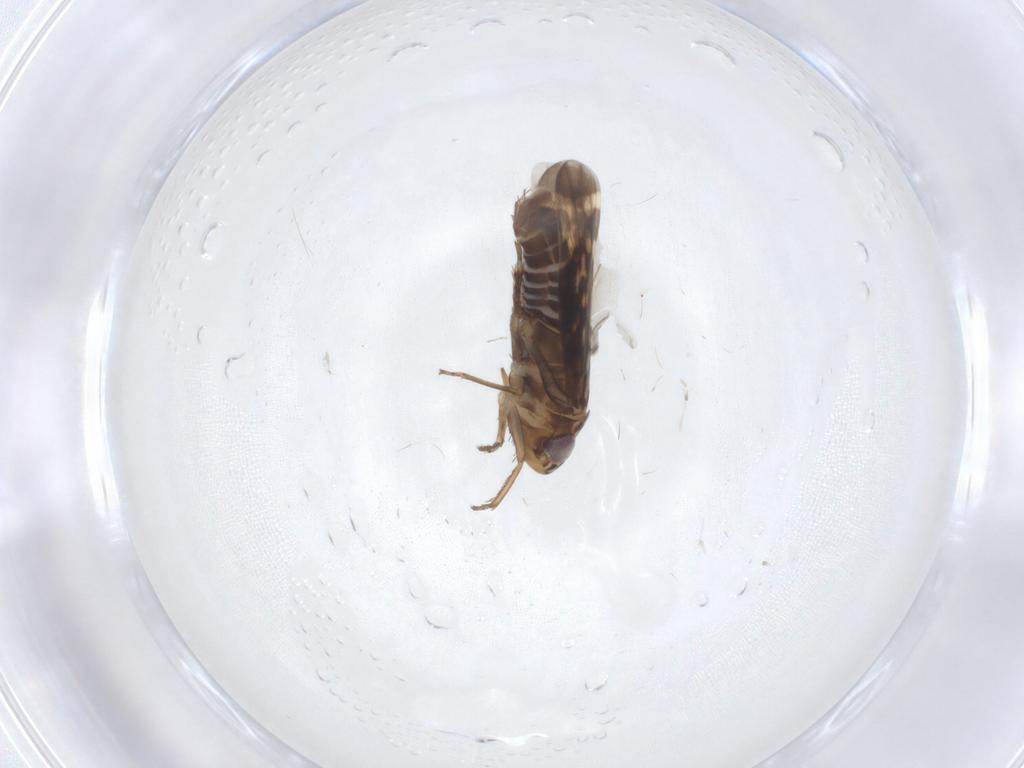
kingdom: Animalia
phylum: Arthropoda
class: Insecta
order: Hemiptera
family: Cicadellidae
